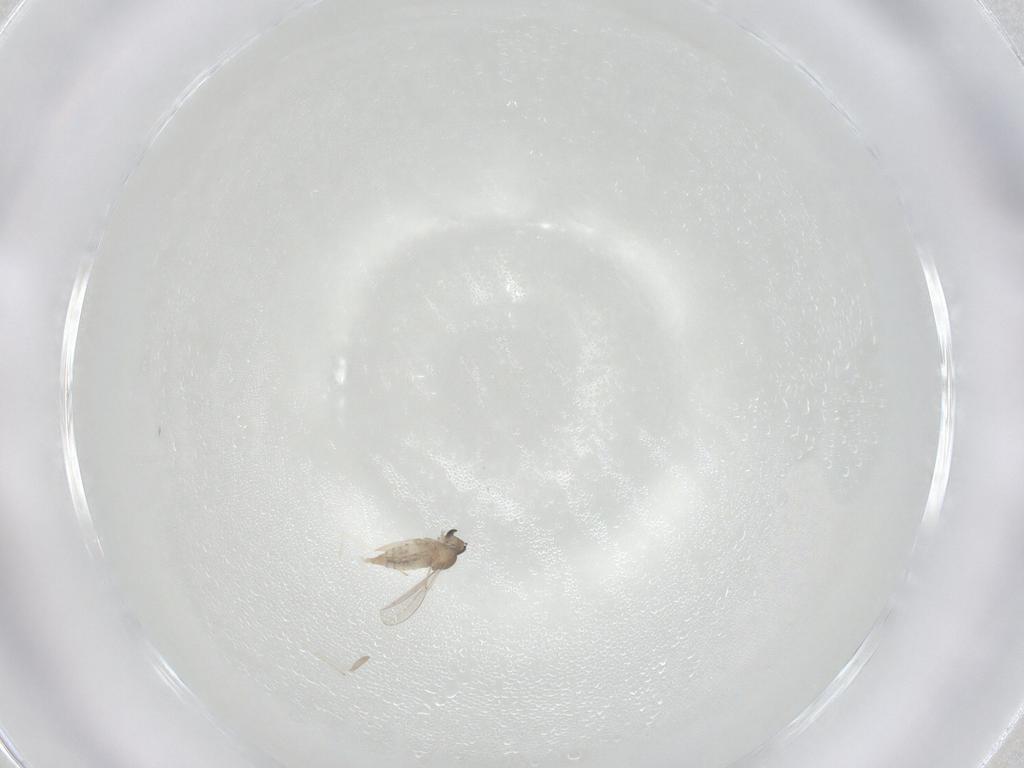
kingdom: Animalia
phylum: Arthropoda
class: Insecta
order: Diptera
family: Cecidomyiidae
